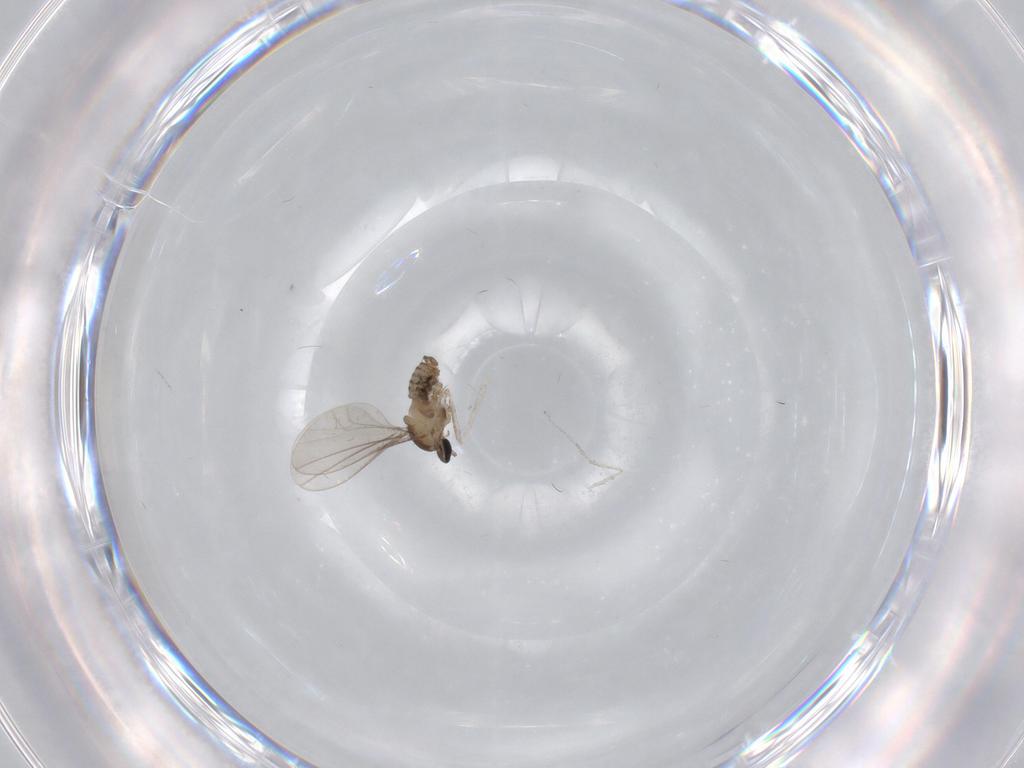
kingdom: Animalia
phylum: Arthropoda
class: Insecta
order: Diptera
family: Cecidomyiidae
